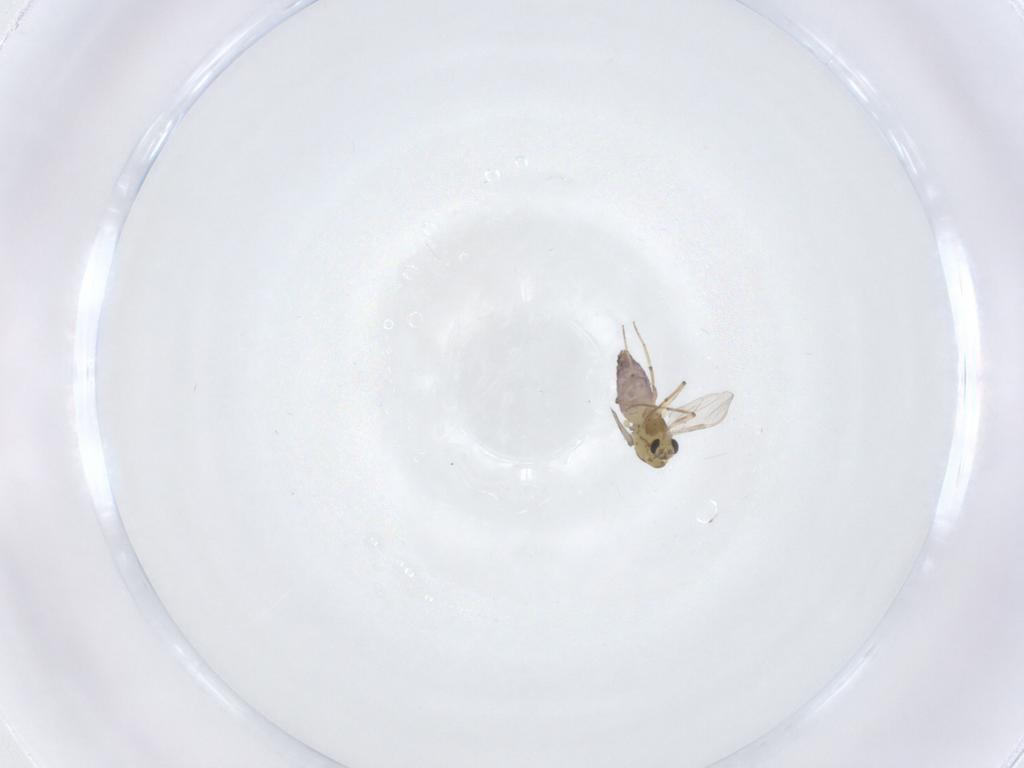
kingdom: Animalia
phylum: Arthropoda
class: Insecta
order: Diptera
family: Chironomidae
